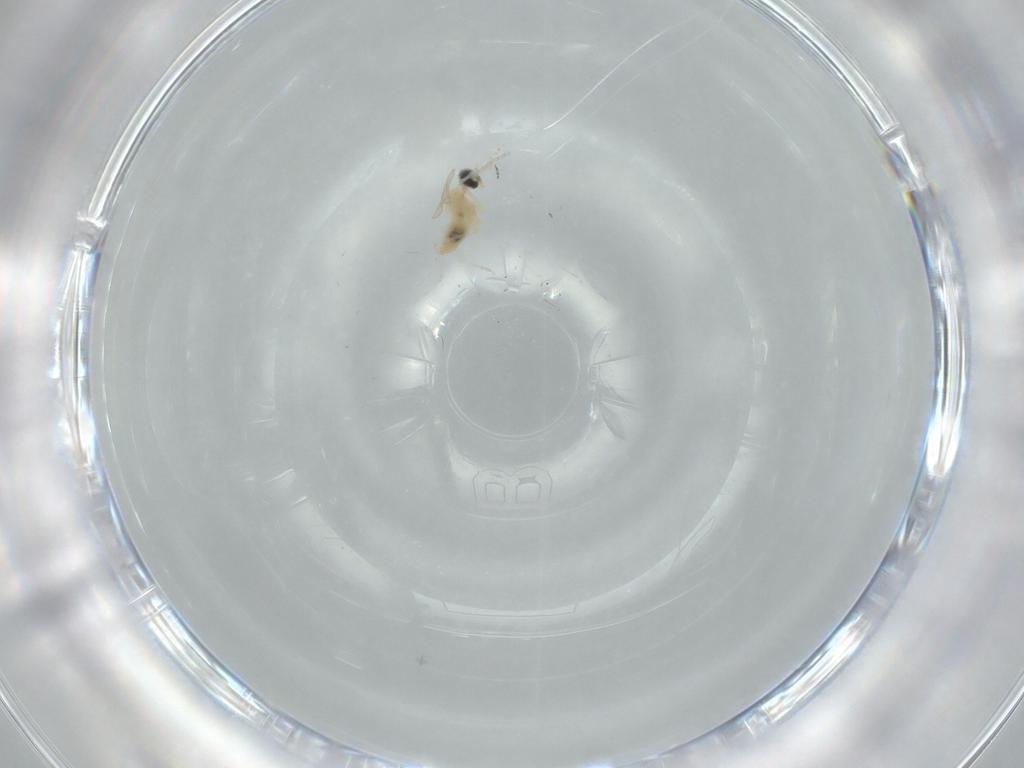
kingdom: Animalia
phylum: Arthropoda
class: Insecta
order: Diptera
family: Cecidomyiidae
